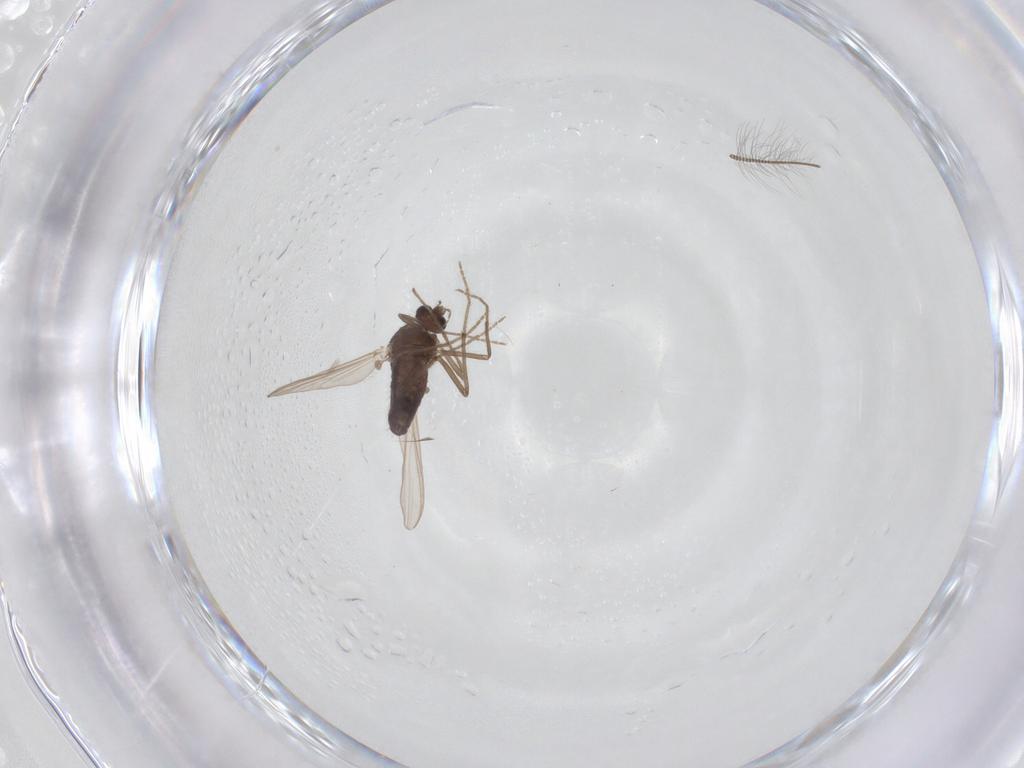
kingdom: Animalia
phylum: Arthropoda
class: Insecta
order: Diptera
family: Chironomidae
